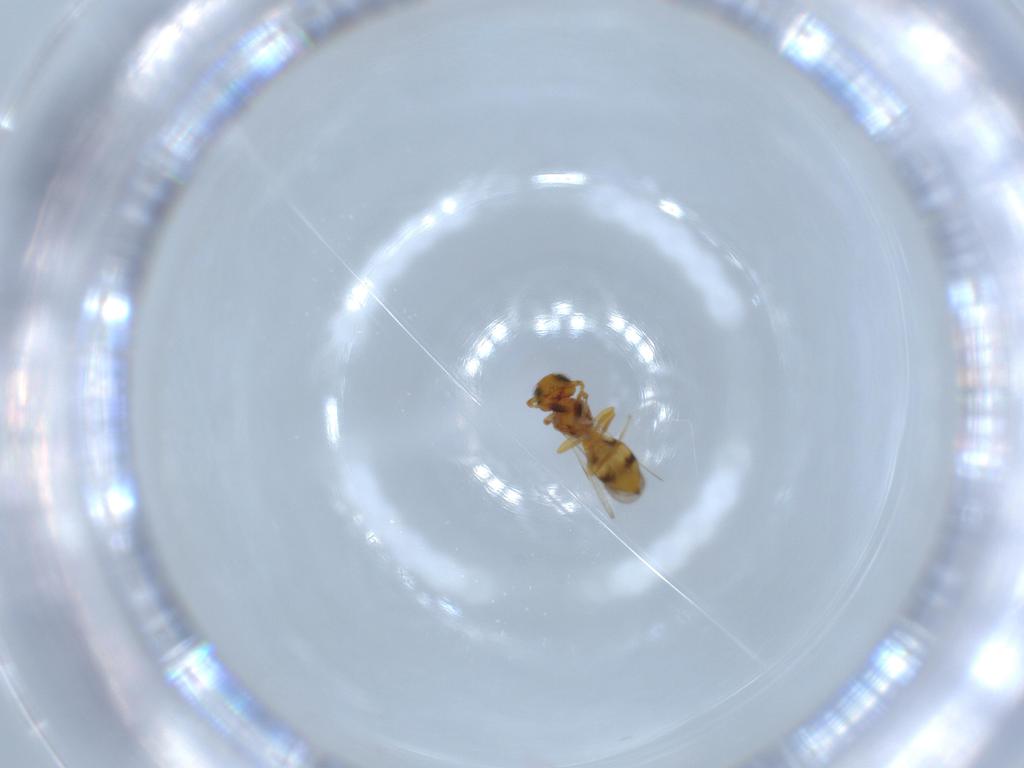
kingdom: Animalia
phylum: Arthropoda
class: Insecta
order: Hymenoptera
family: Scelionidae
